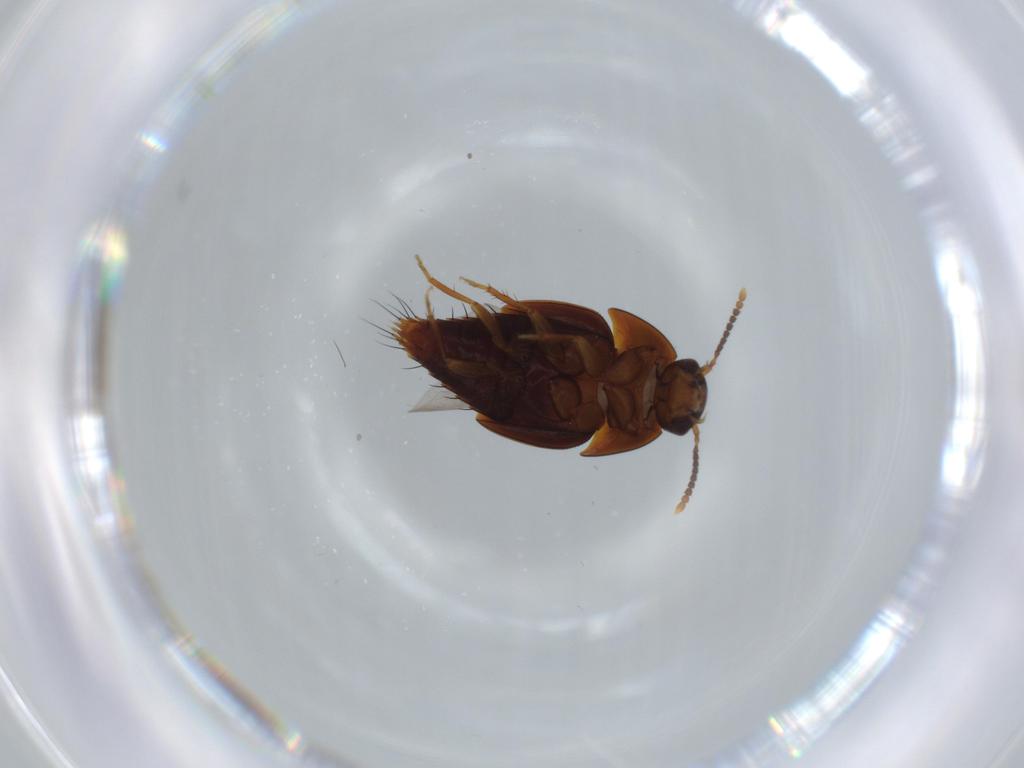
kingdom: Animalia
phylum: Arthropoda
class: Insecta
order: Coleoptera
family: Staphylinidae
